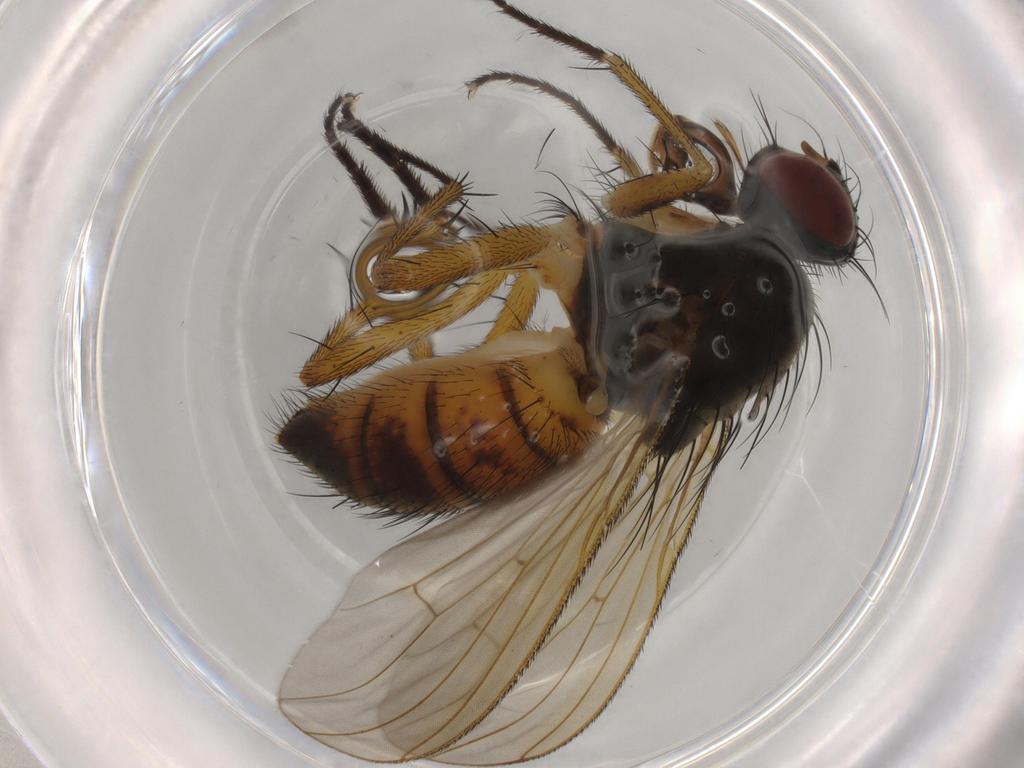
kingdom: Animalia
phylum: Arthropoda
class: Insecta
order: Diptera
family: Muscidae
